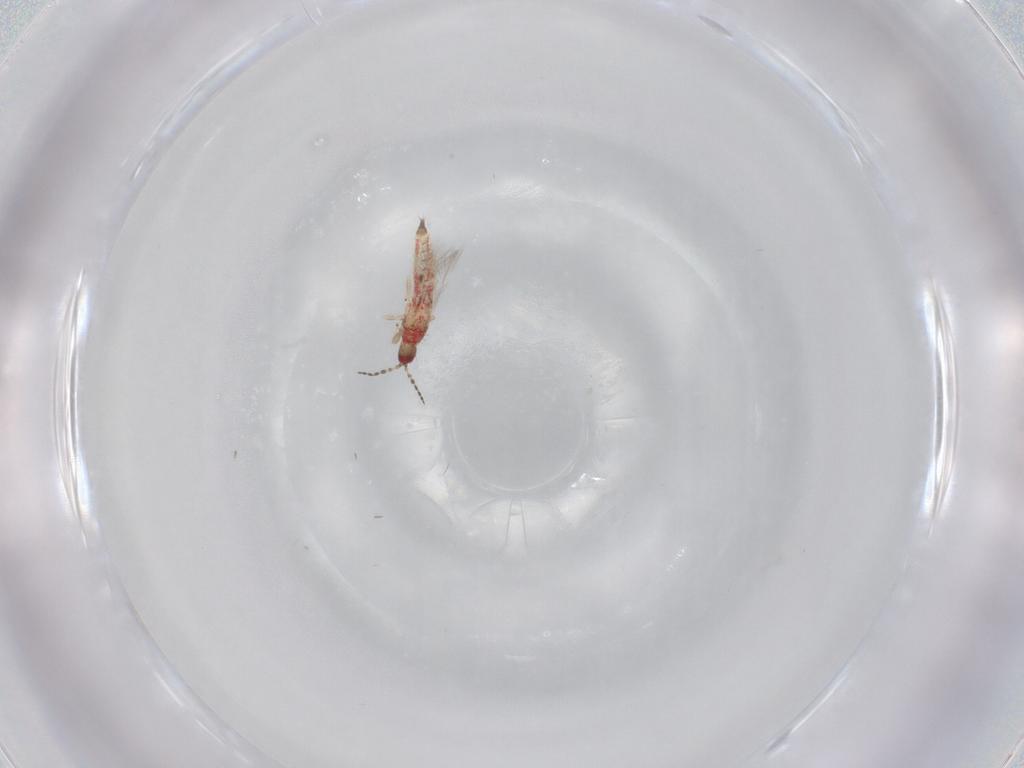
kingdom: Animalia
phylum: Arthropoda
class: Insecta
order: Thysanoptera
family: Phlaeothripidae
